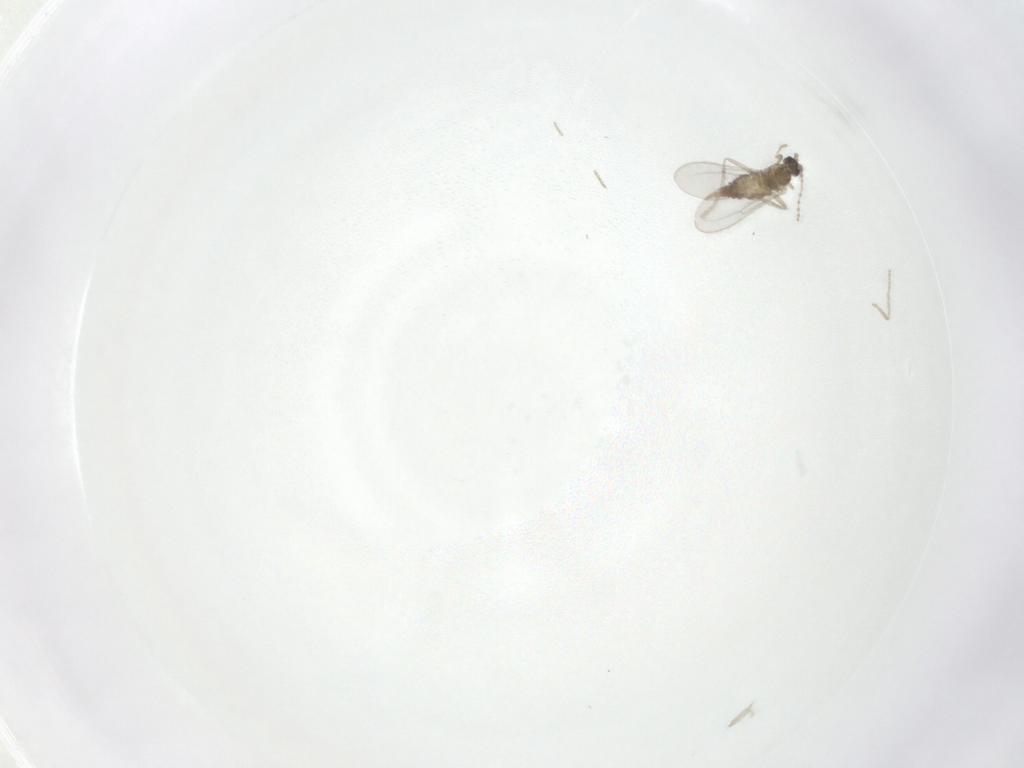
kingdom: Animalia
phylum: Arthropoda
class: Insecta
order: Diptera
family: Cecidomyiidae
